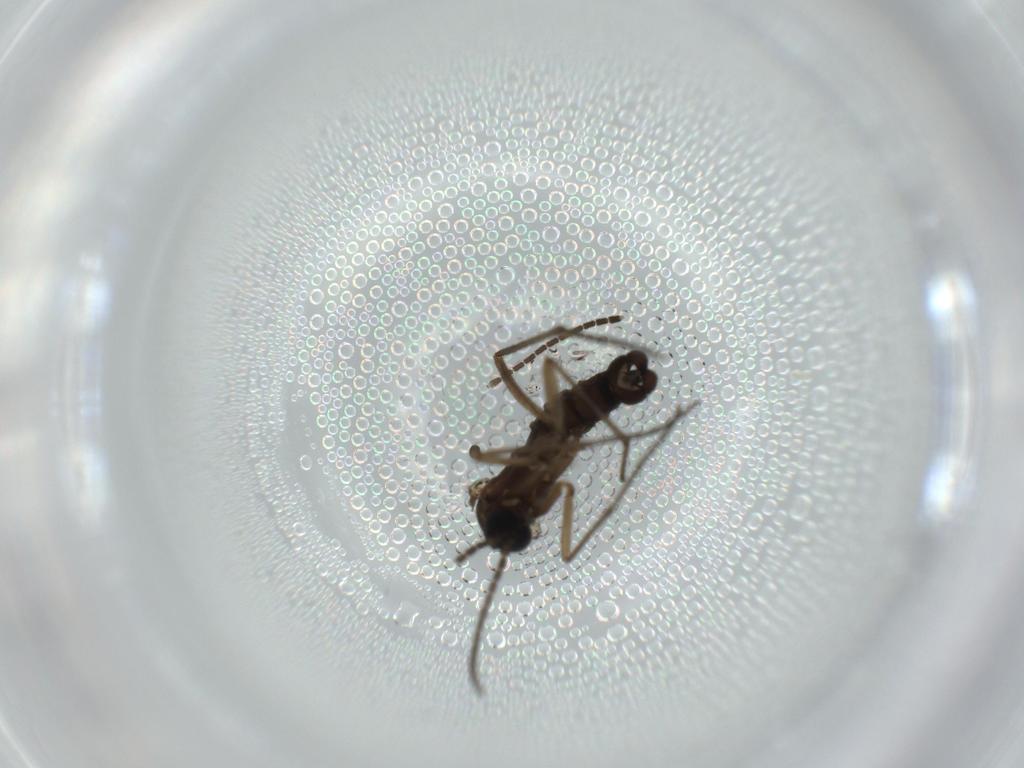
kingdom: Animalia
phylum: Arthropoda
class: Insecta
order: Diptera
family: Sciaridae
